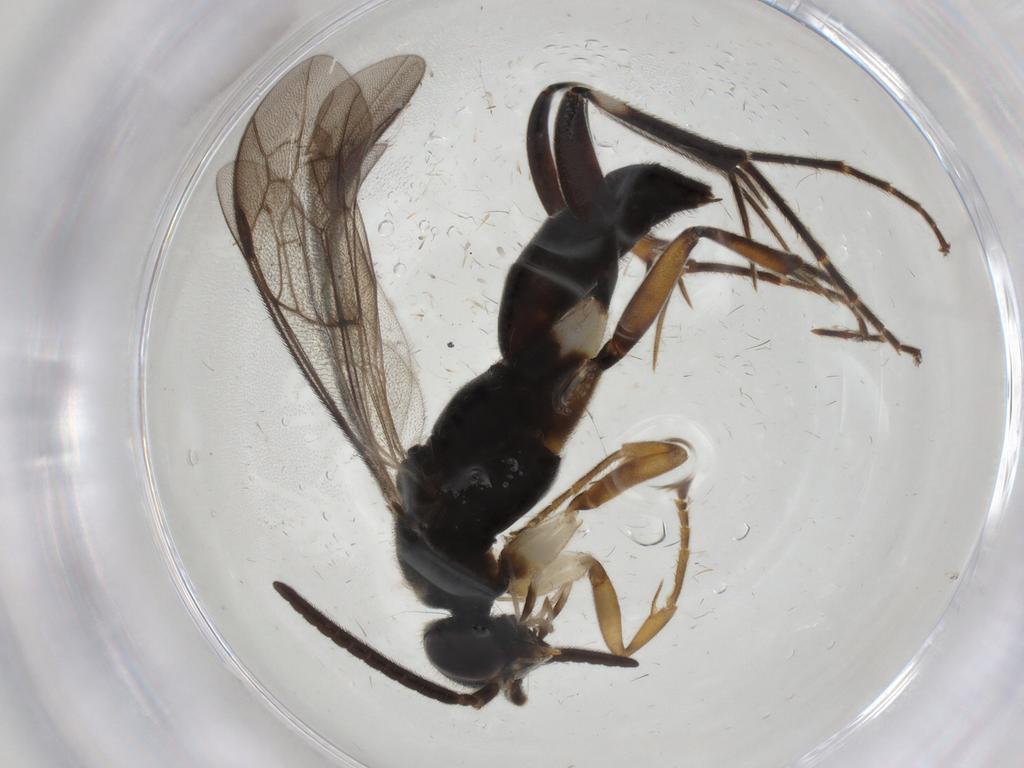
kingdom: Animalia
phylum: Arthropoda
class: Insecta
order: Hymenoptera
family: Pompilidae
